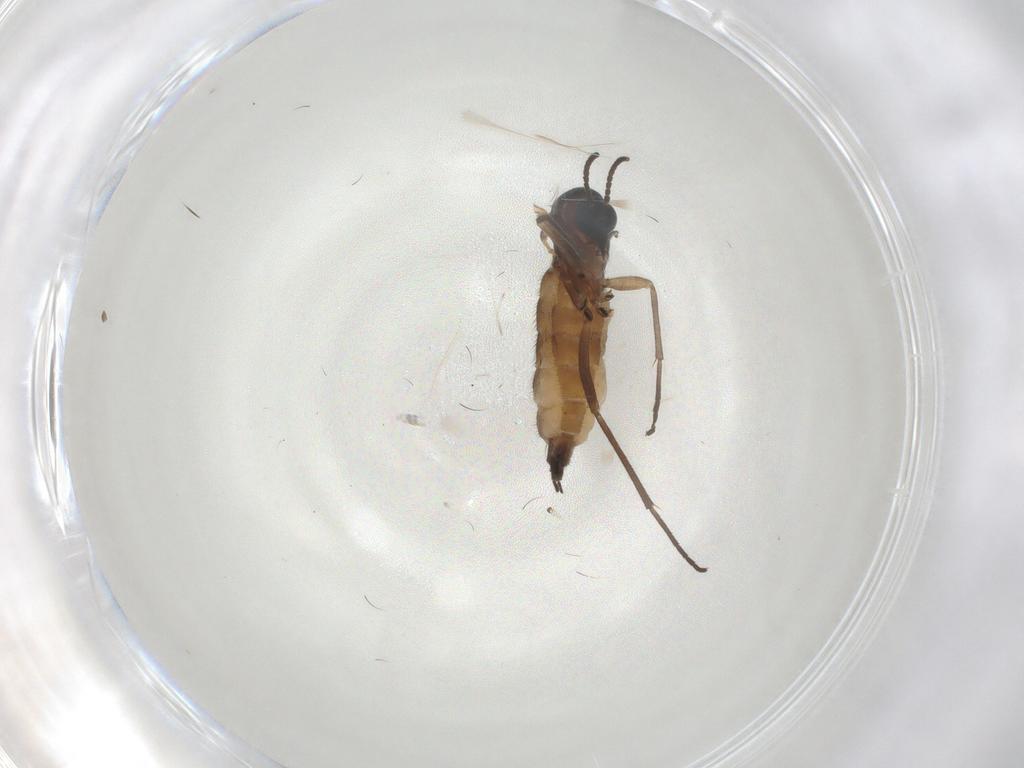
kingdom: Animalia
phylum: Arthropoda
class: Insecta
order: Diptera
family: Sciaridae
